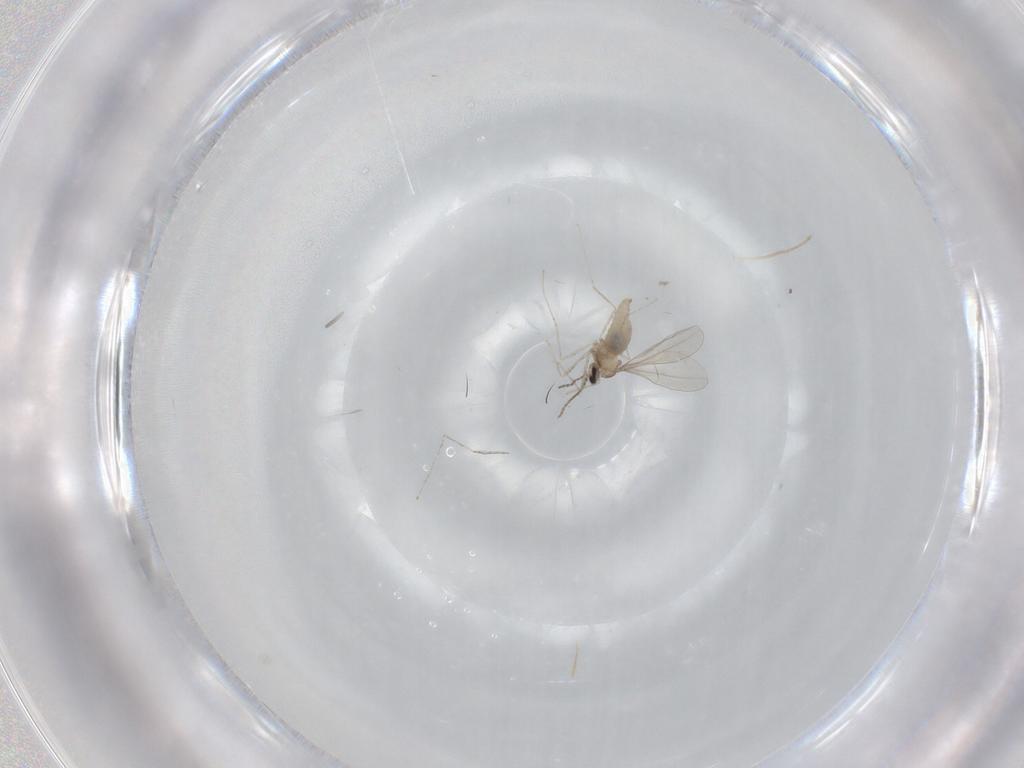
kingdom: Animalia
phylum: Arthropoda
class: Insecta
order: Diptera
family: Cecidomyiidae
